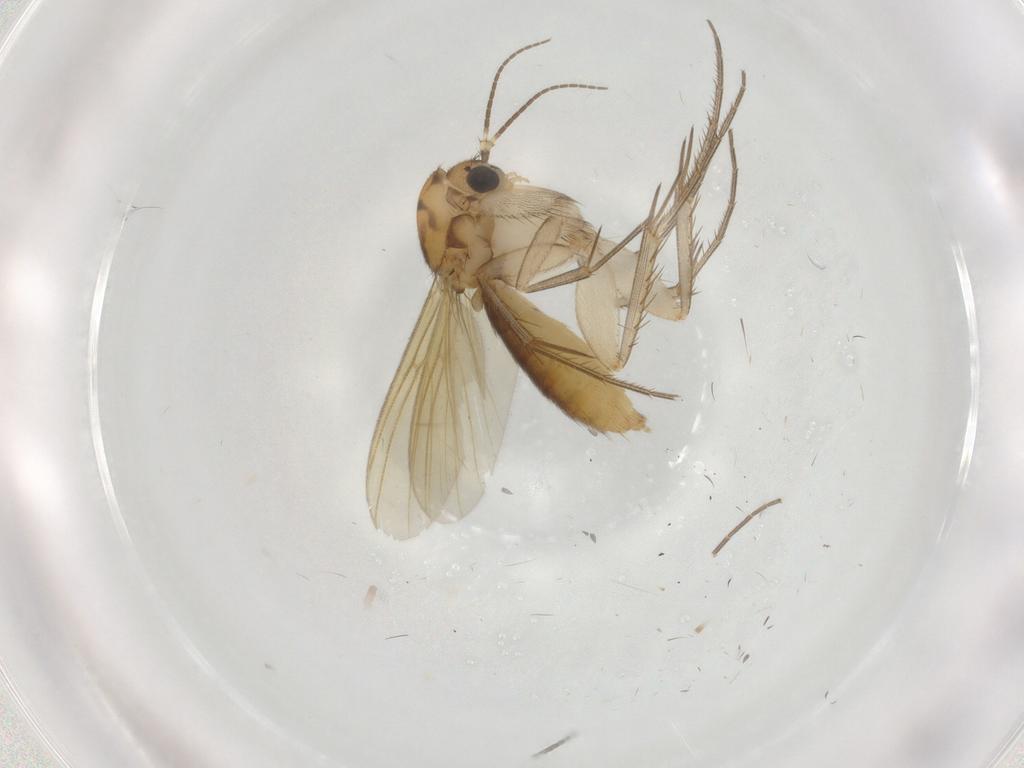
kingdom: Animalia
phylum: Arthropoda
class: Insecta
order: Diptera
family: Mycetophilidae
